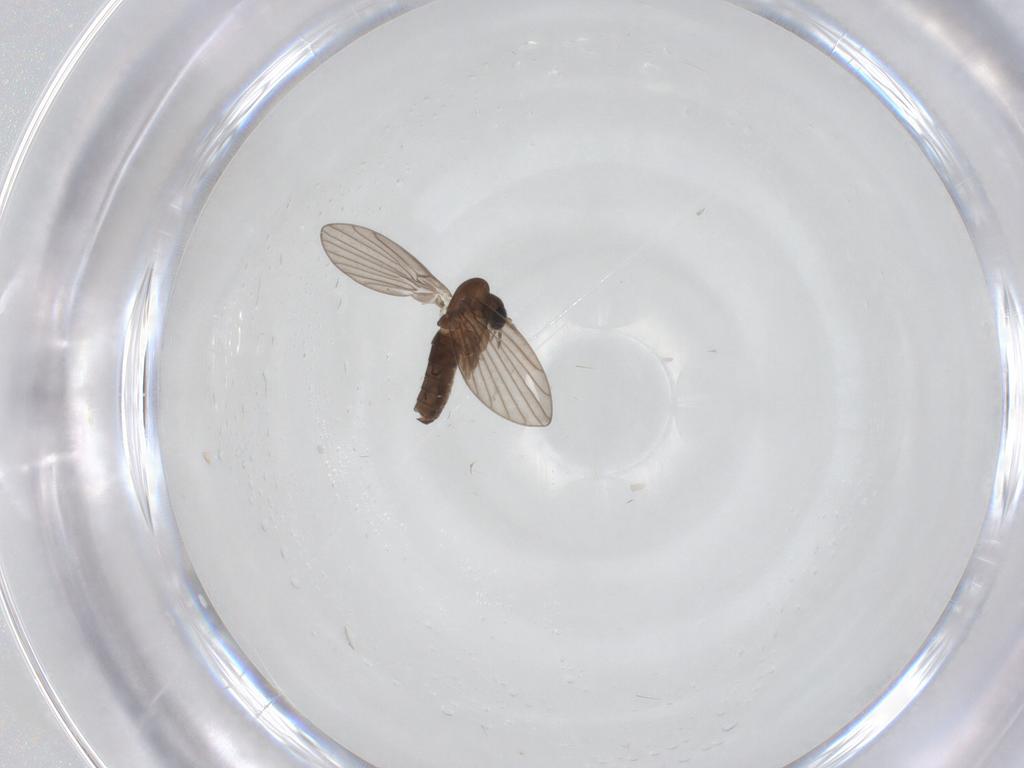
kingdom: Animalia
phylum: Arthropoda
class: Insecta
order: Diptera
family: Psychodidae
